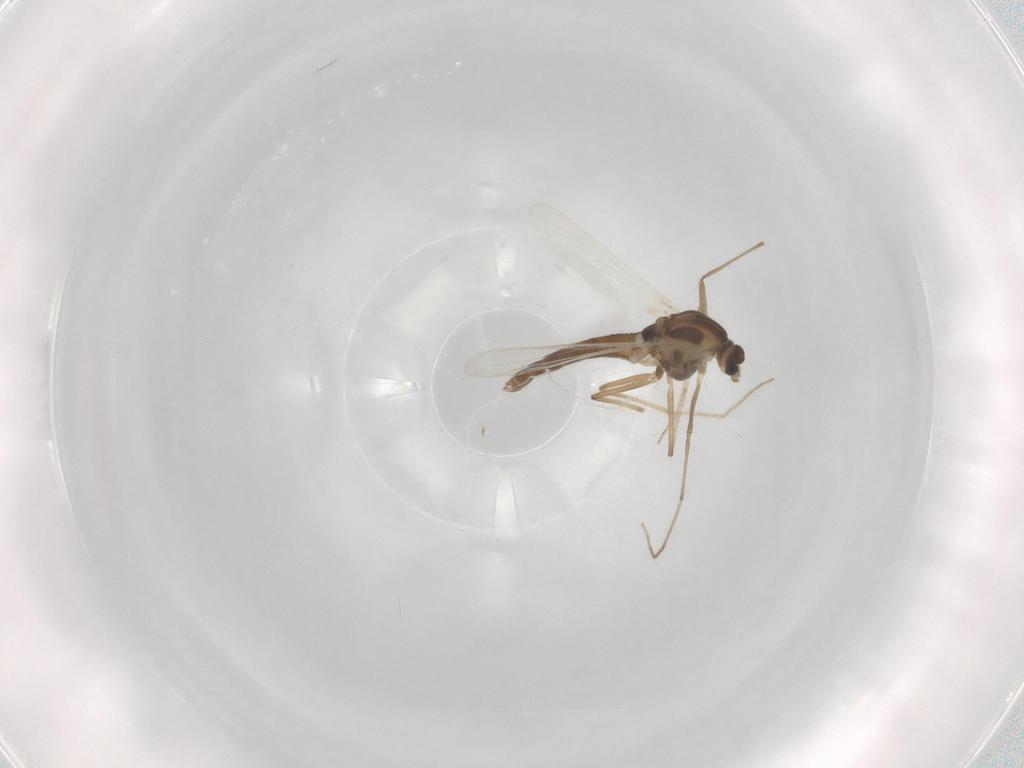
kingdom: Animalia
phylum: Arthropoda
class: Insecta
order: Diptera
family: Chironomidae
